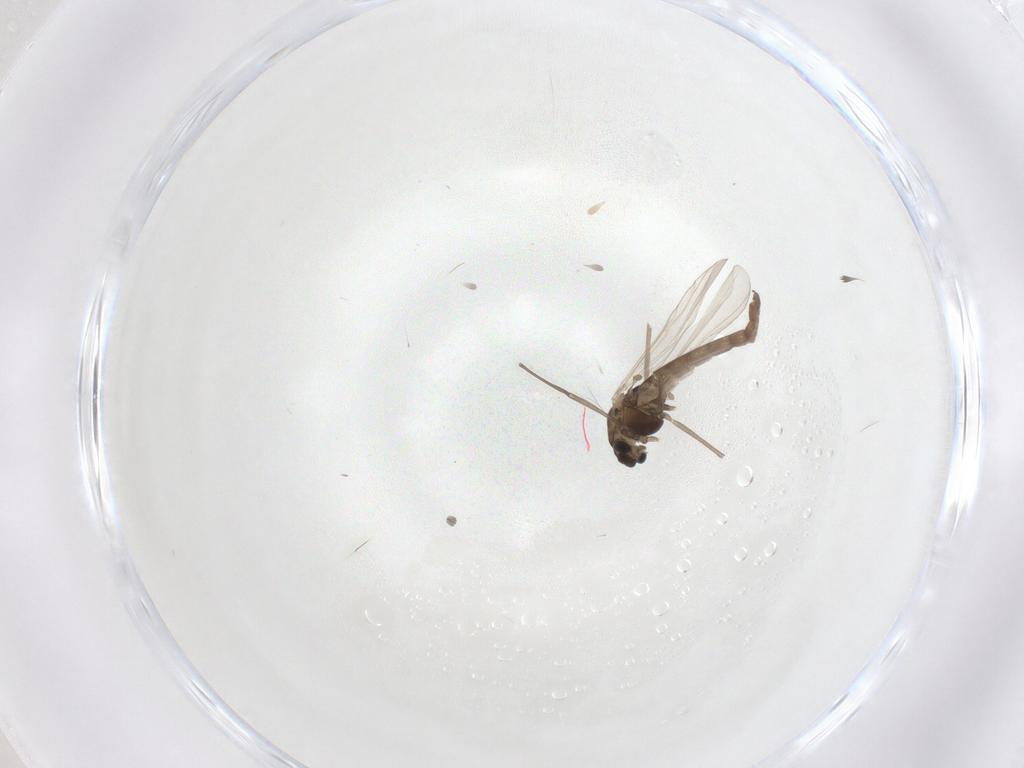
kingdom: Animalia
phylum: Arthropoda
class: Insecta
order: Diptera
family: Chironomidae
